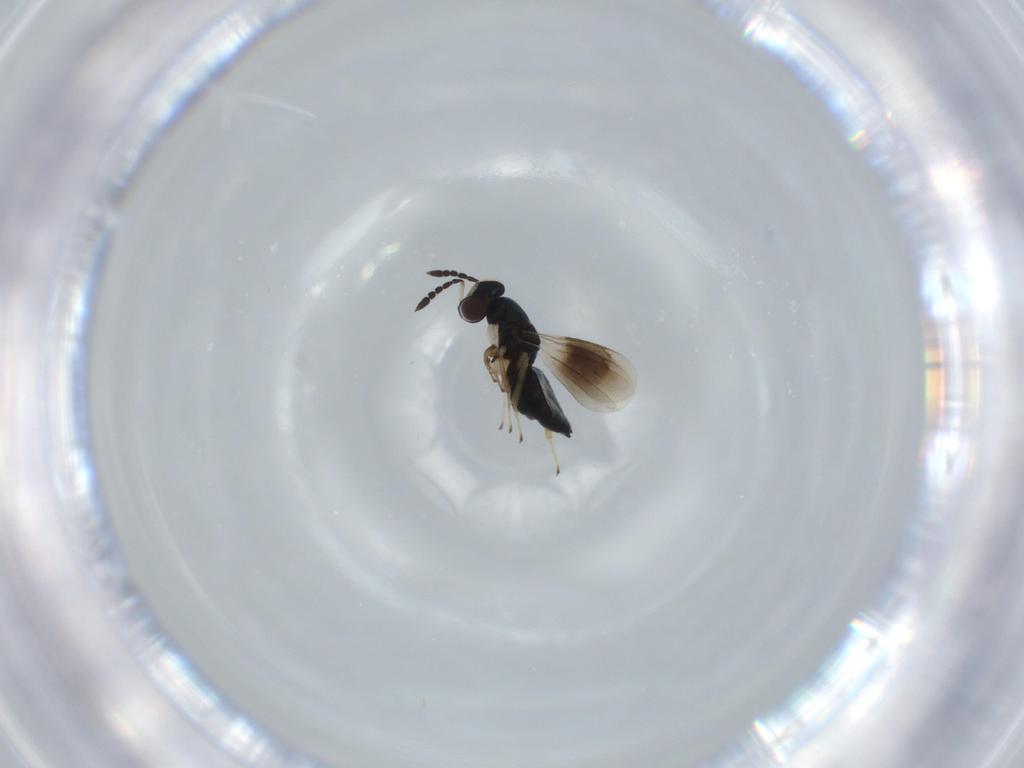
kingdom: Animalia
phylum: Arthropoda
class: Insecta
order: Hymenoptera
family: Eulophidae
